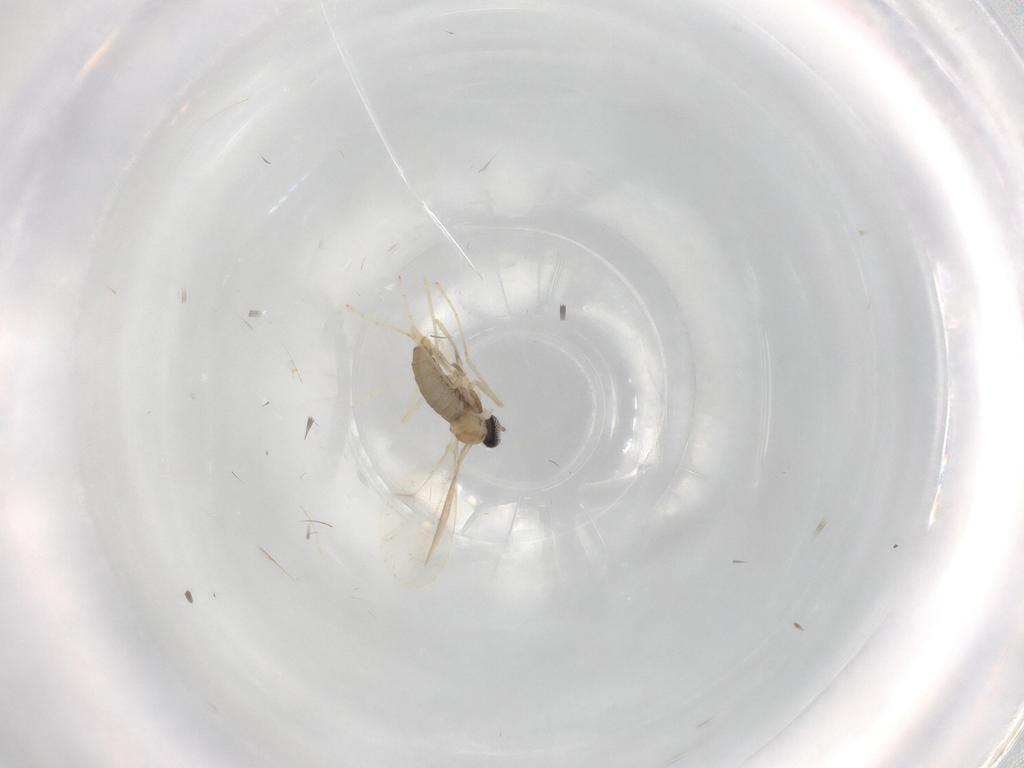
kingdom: Animalia
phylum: Arthropoda
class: Insecta
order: Diptera
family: Cecidomyiidae
